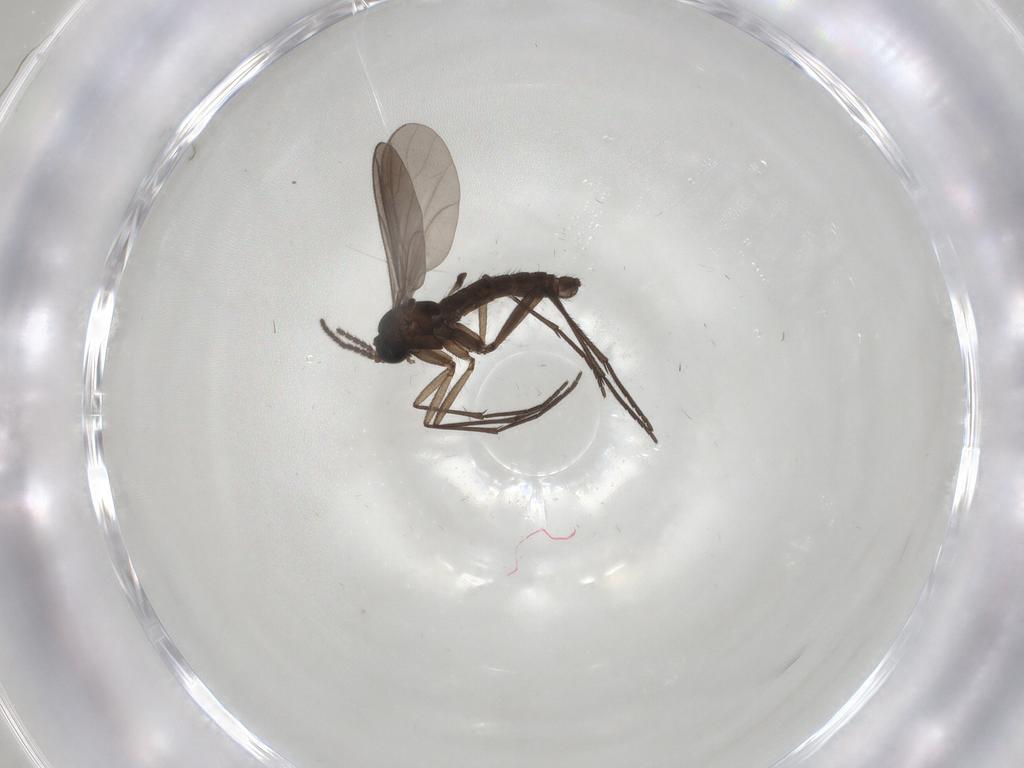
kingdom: Animalia
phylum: Arthropoda
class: Insecta
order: Diptera
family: Sciaridae
